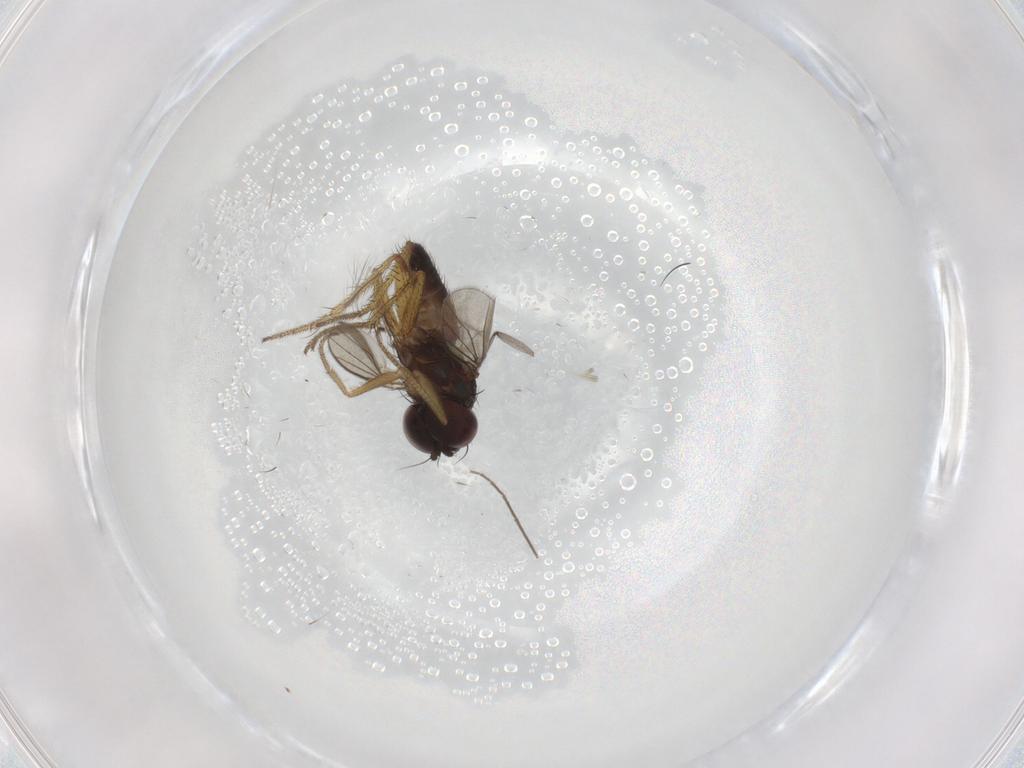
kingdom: Animalia
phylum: Arthropoda
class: Insecta
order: Diptera
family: Sciaridae
